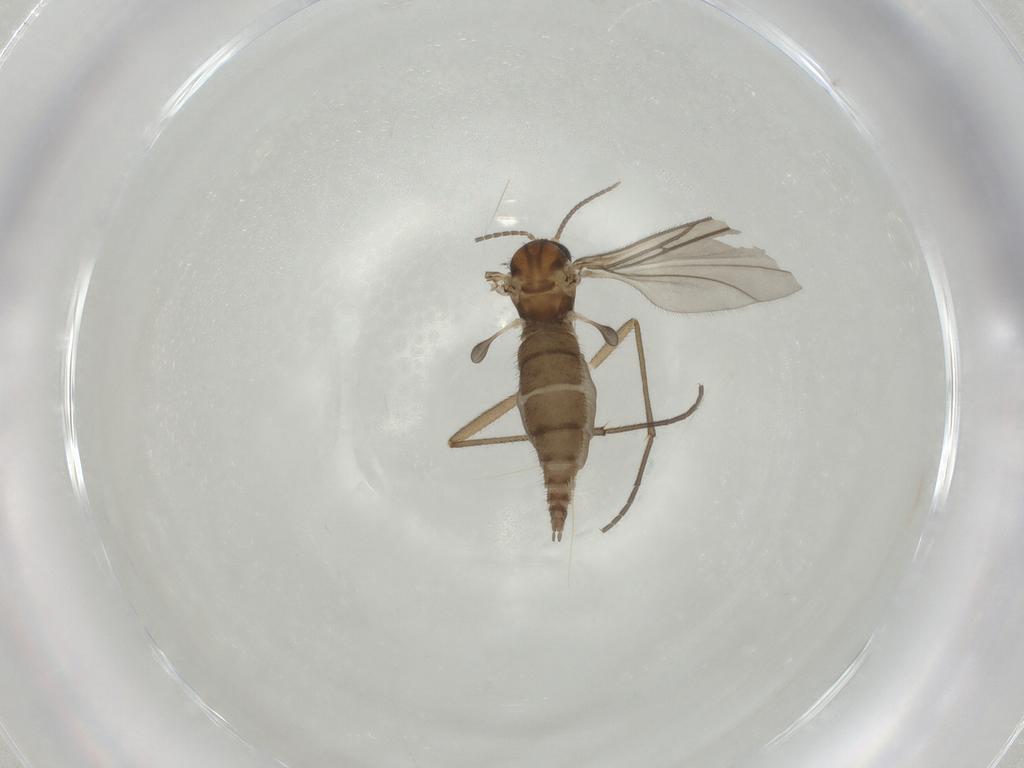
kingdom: Animalia
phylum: Arthropoda
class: Insecta
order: Diptera
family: Sciaridae
